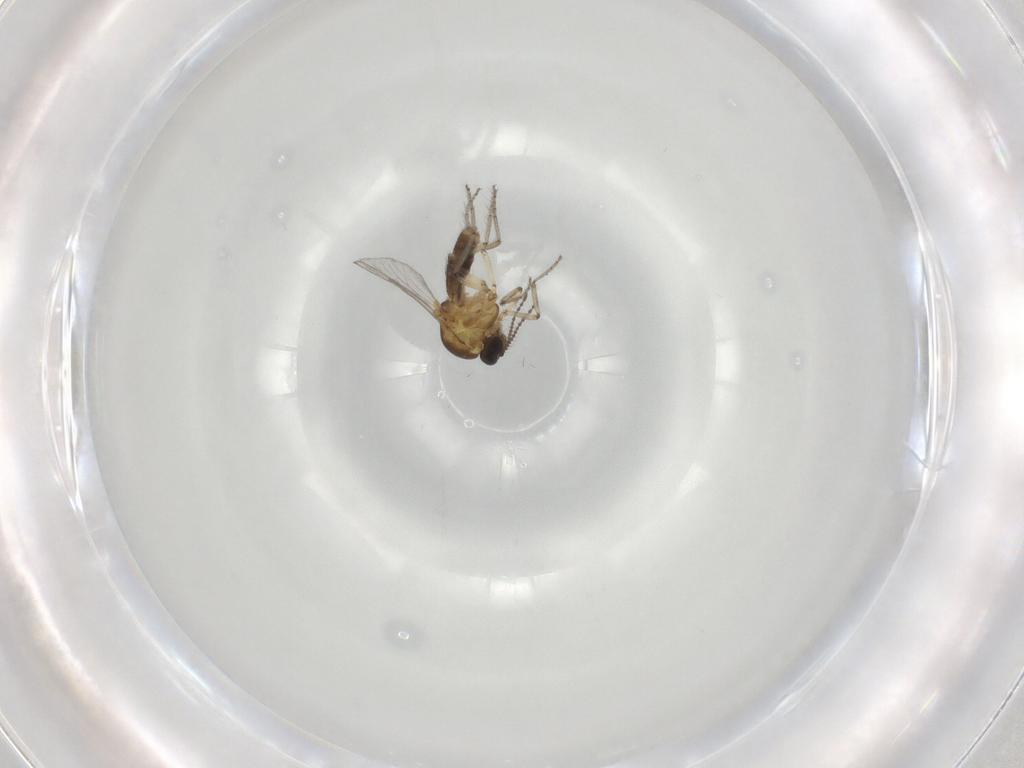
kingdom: Animalia
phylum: Arthropoda
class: Insecta
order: Diptera
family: Ceratopogonidae
